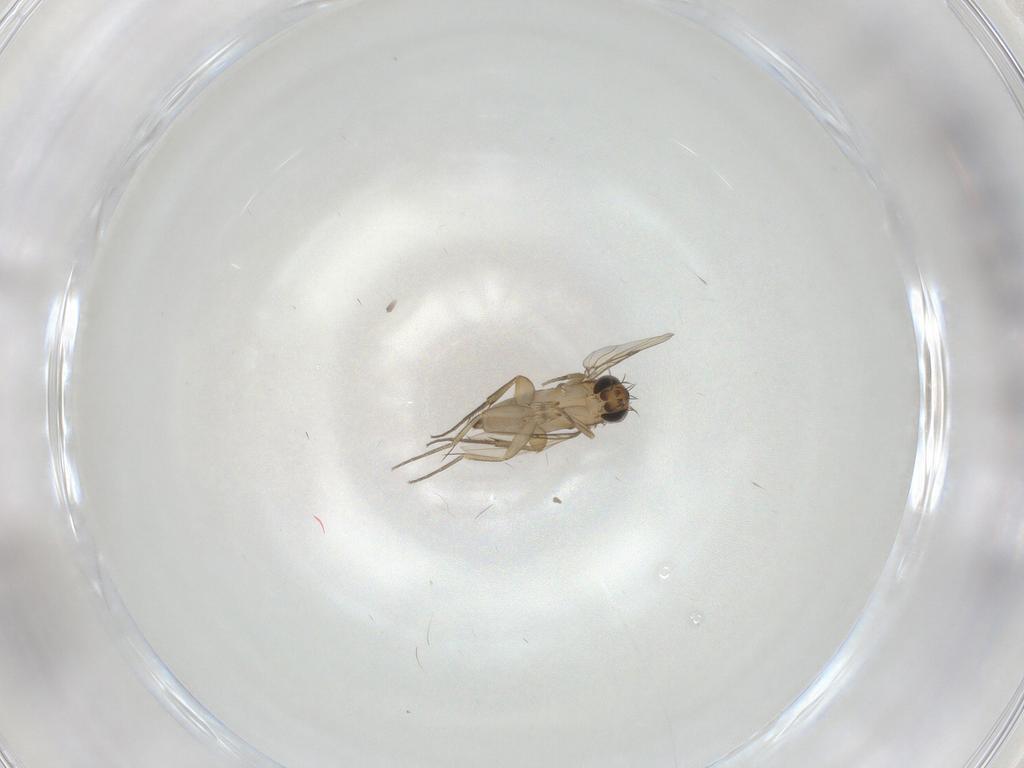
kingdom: Animalia
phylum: Arthropoda
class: Insecta
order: Diptera
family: Phoridae
